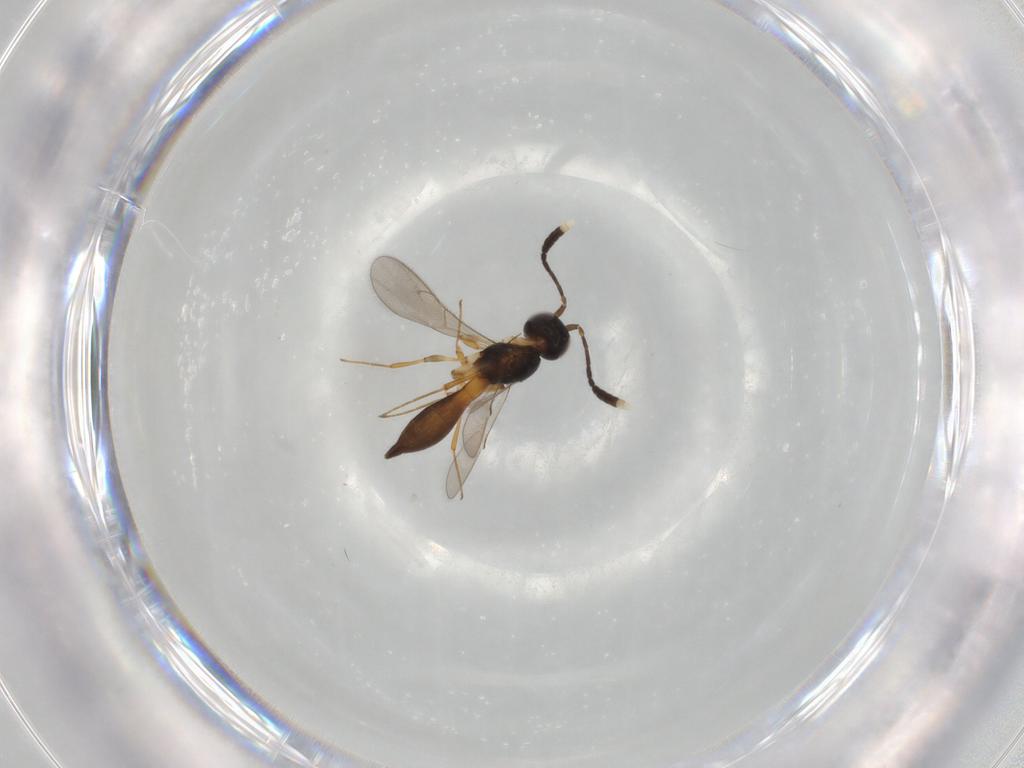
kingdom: Animalia
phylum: Arthropoda
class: Insecta
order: Hymenoptera
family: Scelionidae
